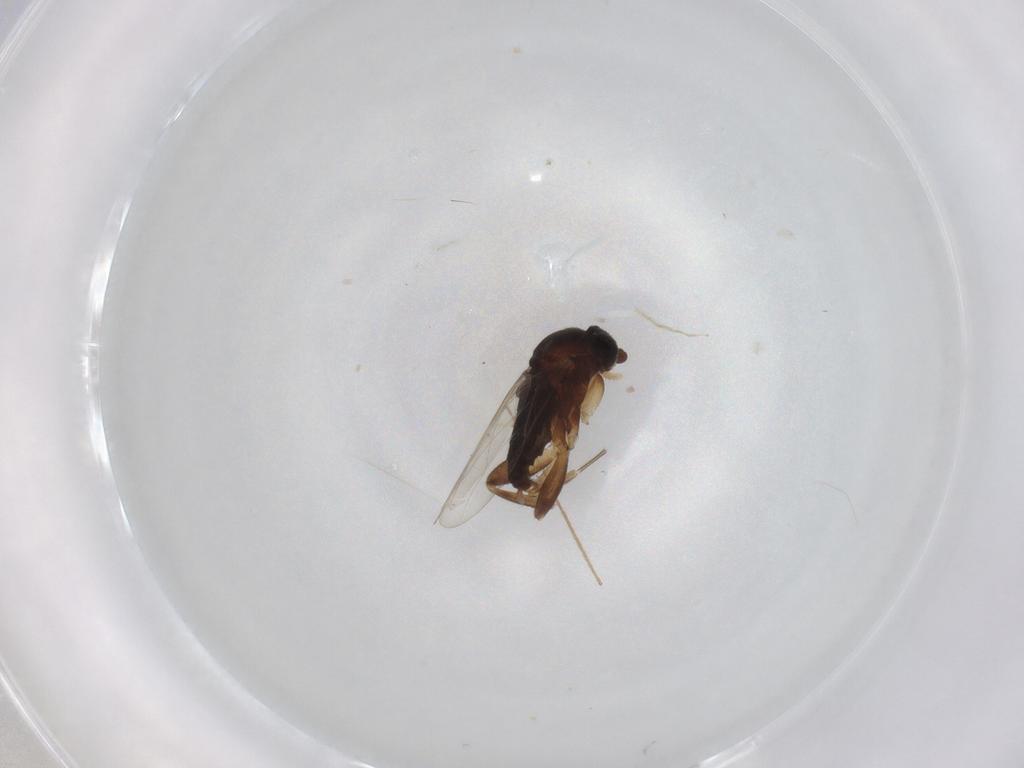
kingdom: Animalia
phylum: Arthropoda
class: Insecta
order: Diptera
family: Phoridae
